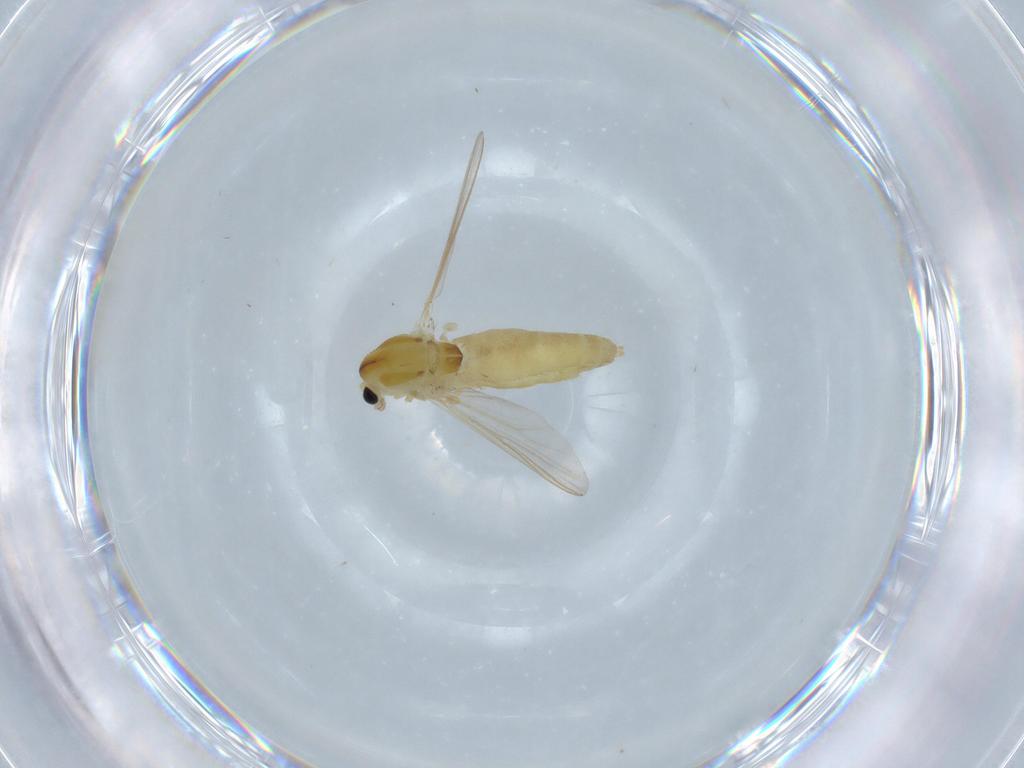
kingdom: Animalia
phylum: Arthropoda
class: Insecta
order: Diptera
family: Chironomidae
